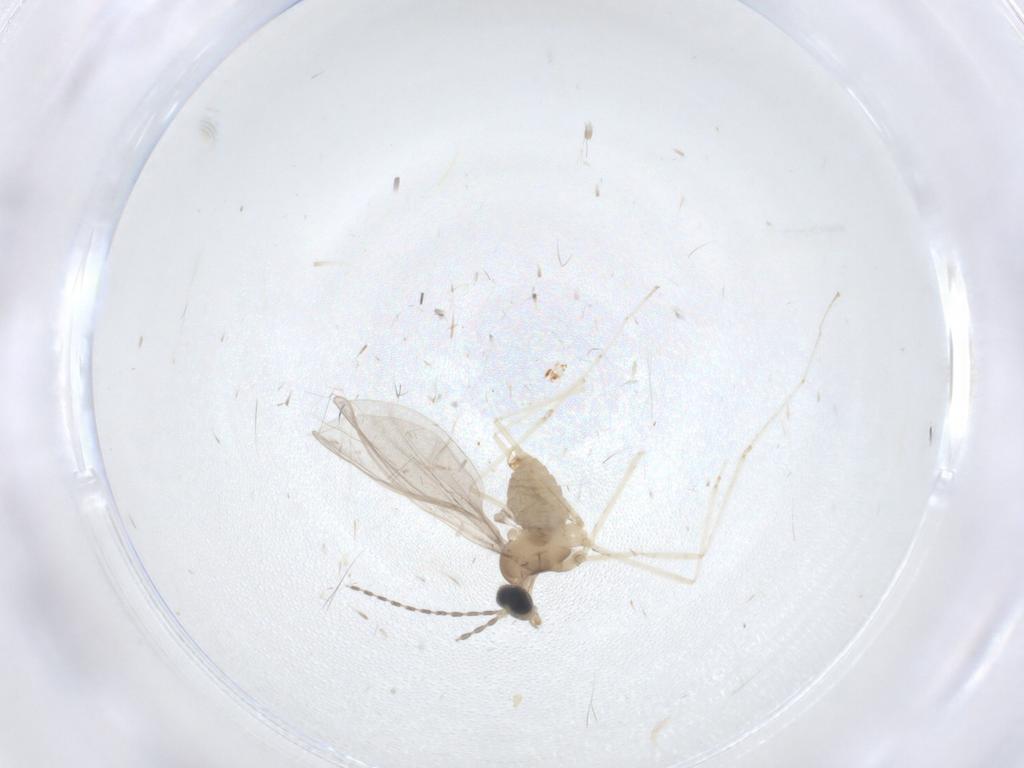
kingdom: Animalia
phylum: Arthropoda
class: Insecta
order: Diptera
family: Cecidomyiidae
